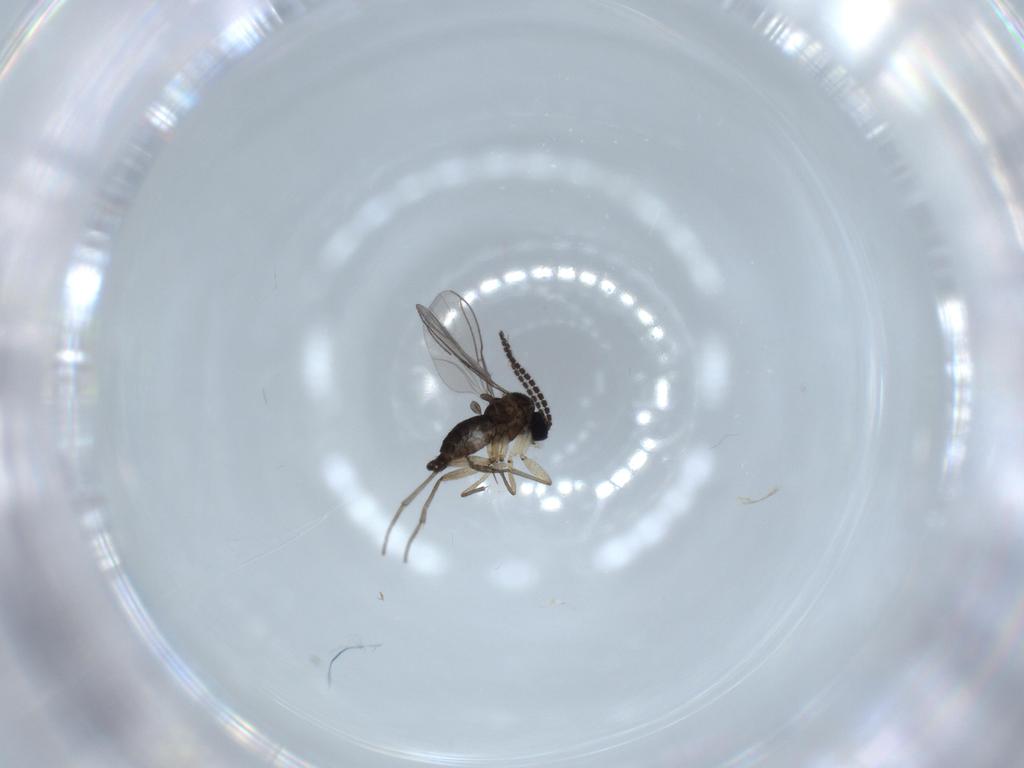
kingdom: Animalia
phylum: Arthropoda
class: Insecta
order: Diptera
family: Sciaridae
